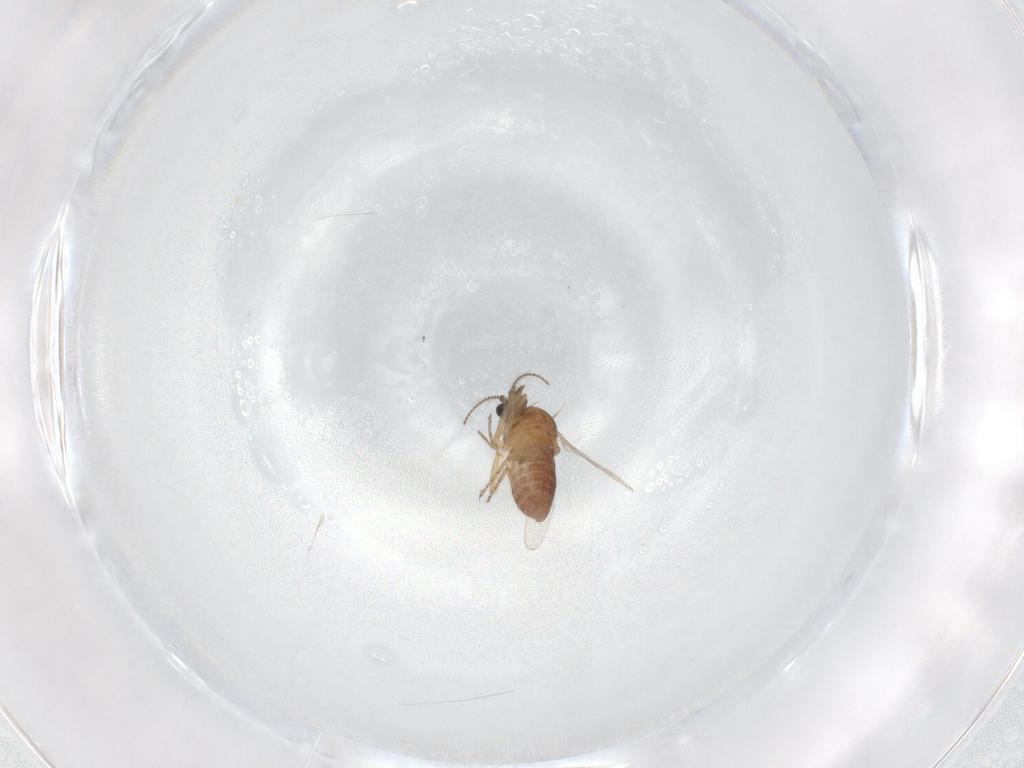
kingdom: Animalia
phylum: Arthropoda
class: Insecta
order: Diptera
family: Ceratopogonidae
